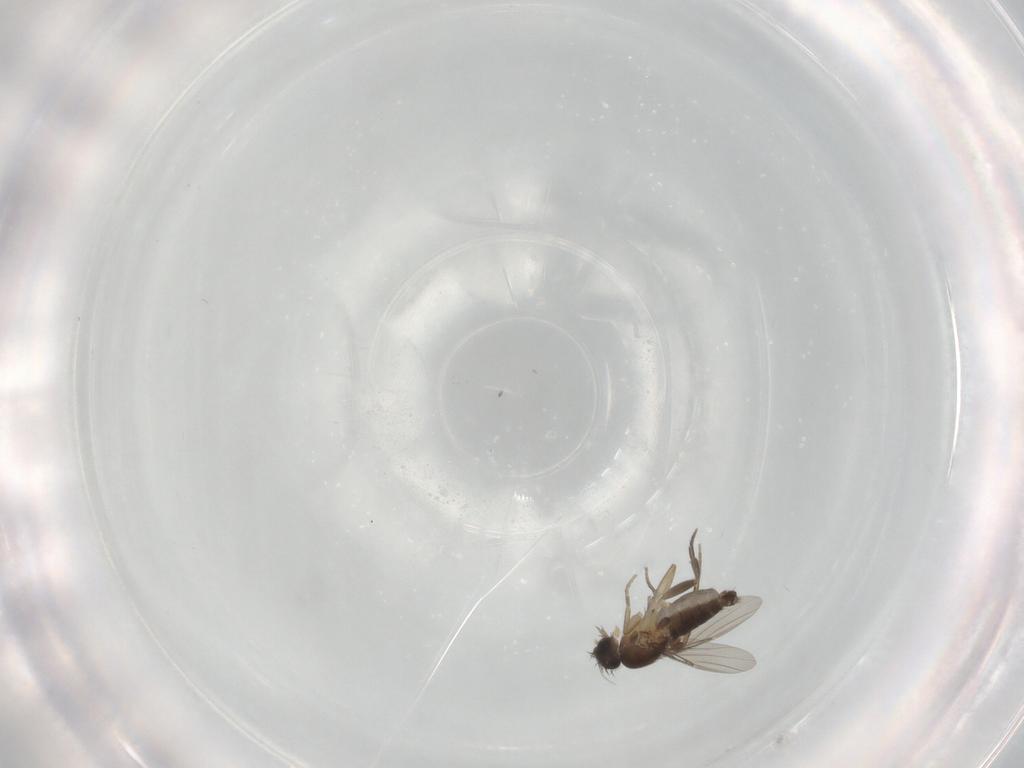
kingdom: Animalia
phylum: Arthropoda
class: Insecta
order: Diptera
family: Phoridae
